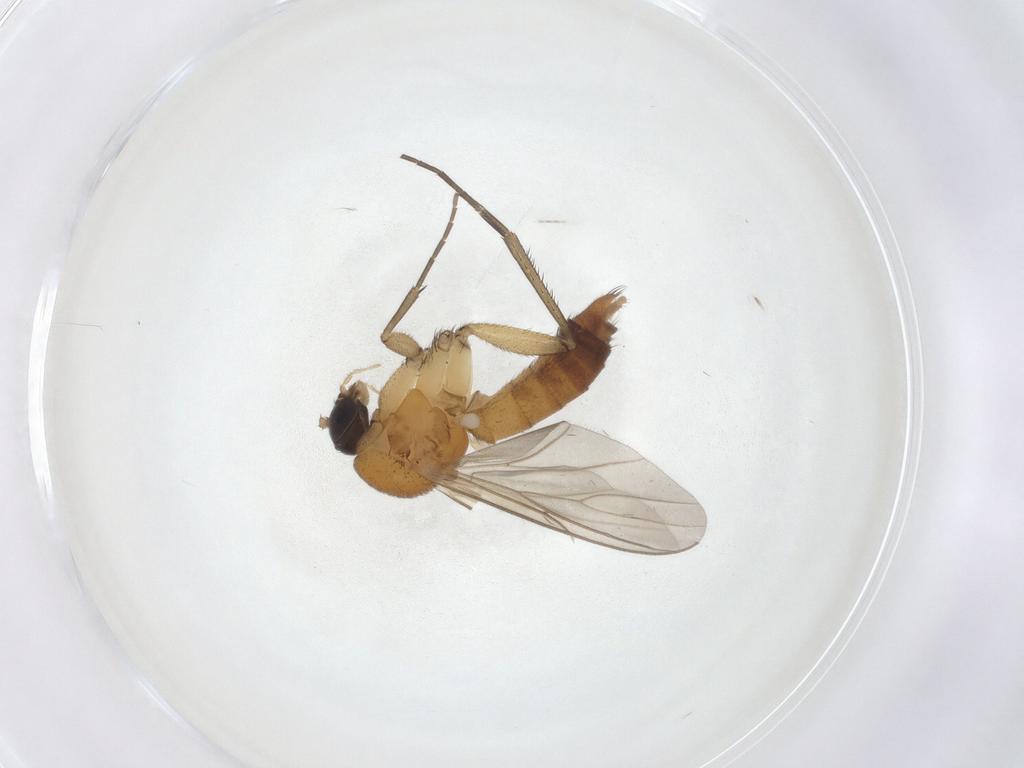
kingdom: Animalia
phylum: Arthropoda
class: Insecta
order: Diptera
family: Mycetophilidae
